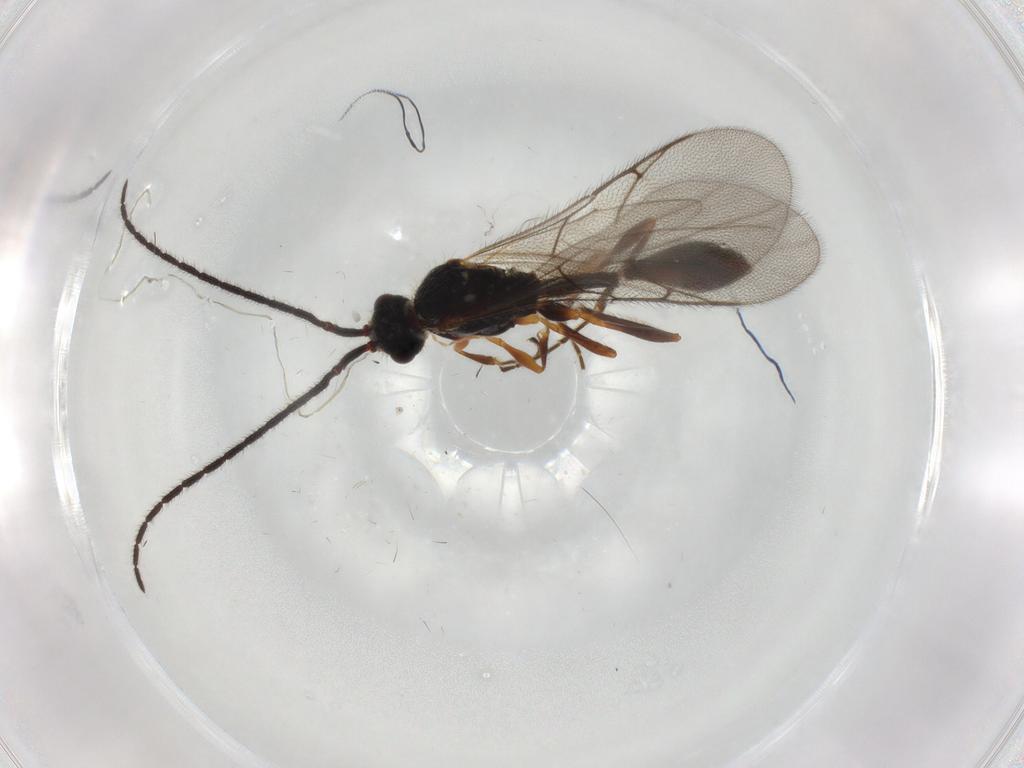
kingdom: Animalia
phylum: Arthropoda
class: Insecta
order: Hymenoptera
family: Diapriidae
